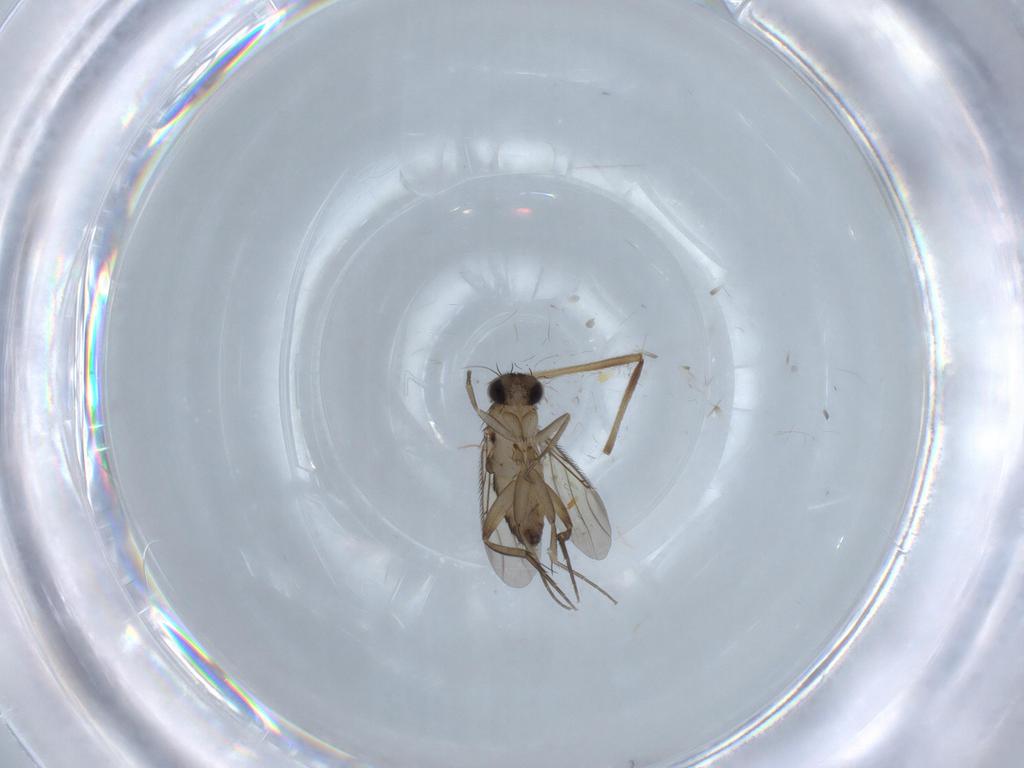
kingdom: Animalia
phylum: Arthropoda
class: Insecta
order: Diptera
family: Phoridae
